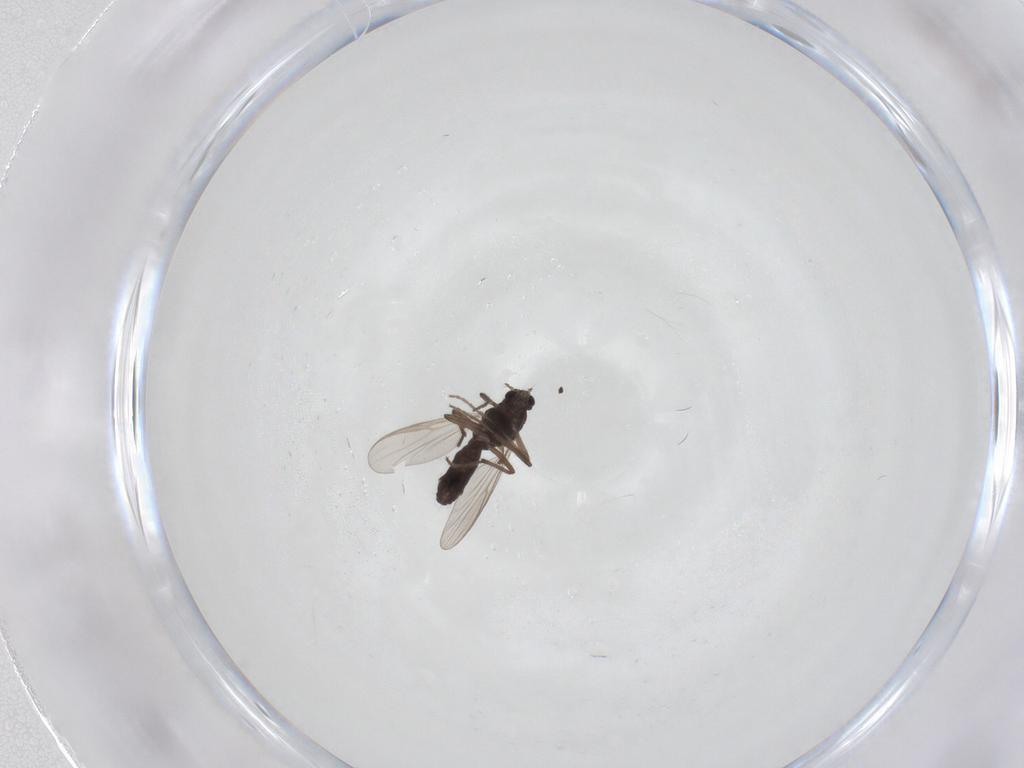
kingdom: Animalia
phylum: Arthropoda
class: Insecta
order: Diptera
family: Chironomidae
